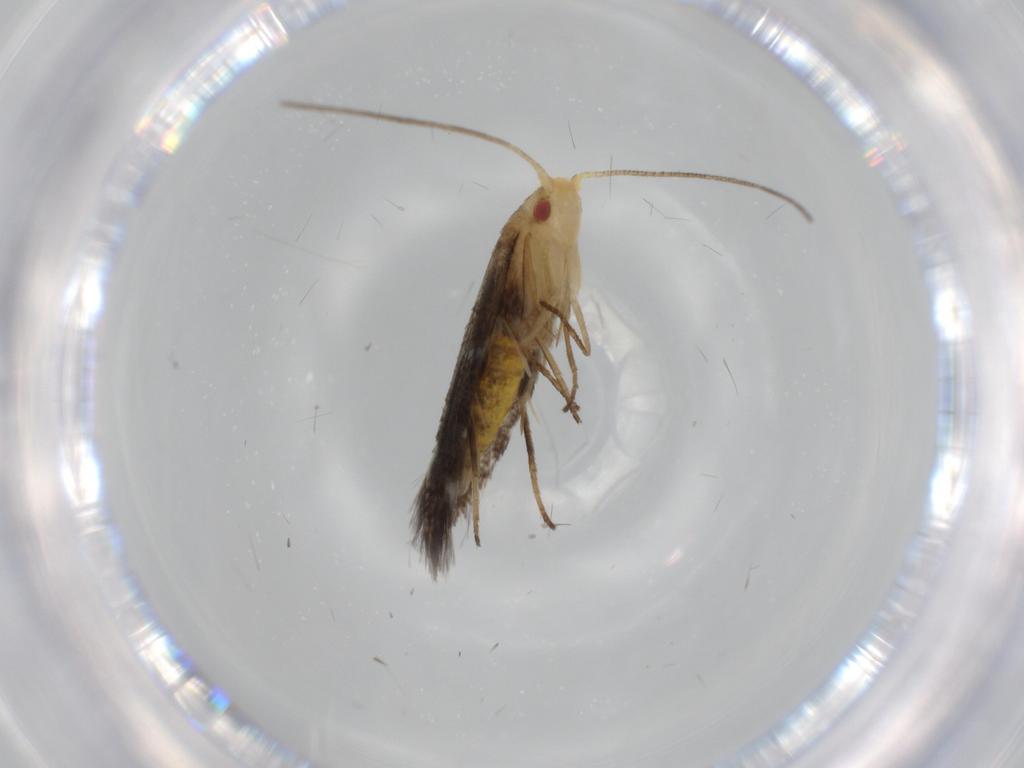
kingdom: Animalia
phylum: Arthropoda
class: Insecta
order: Lepidoptera
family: Cosmopterigidae
